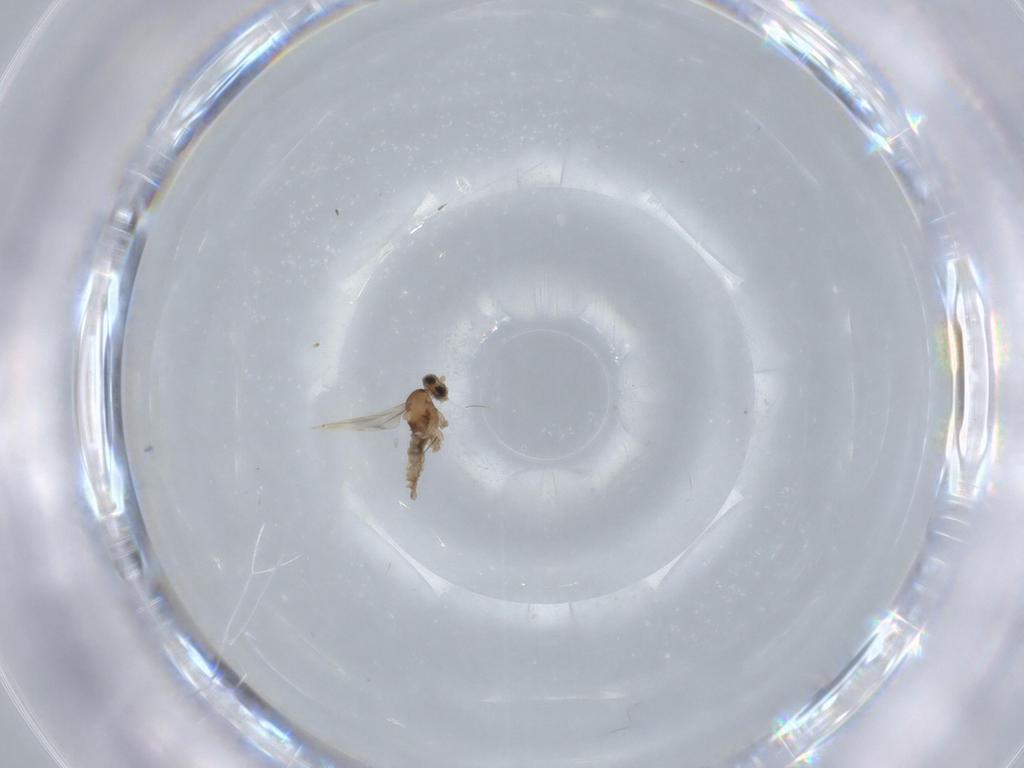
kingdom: Animalia
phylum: Arthropoda
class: Insecta
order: Diptera
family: Cecidomyiidae
